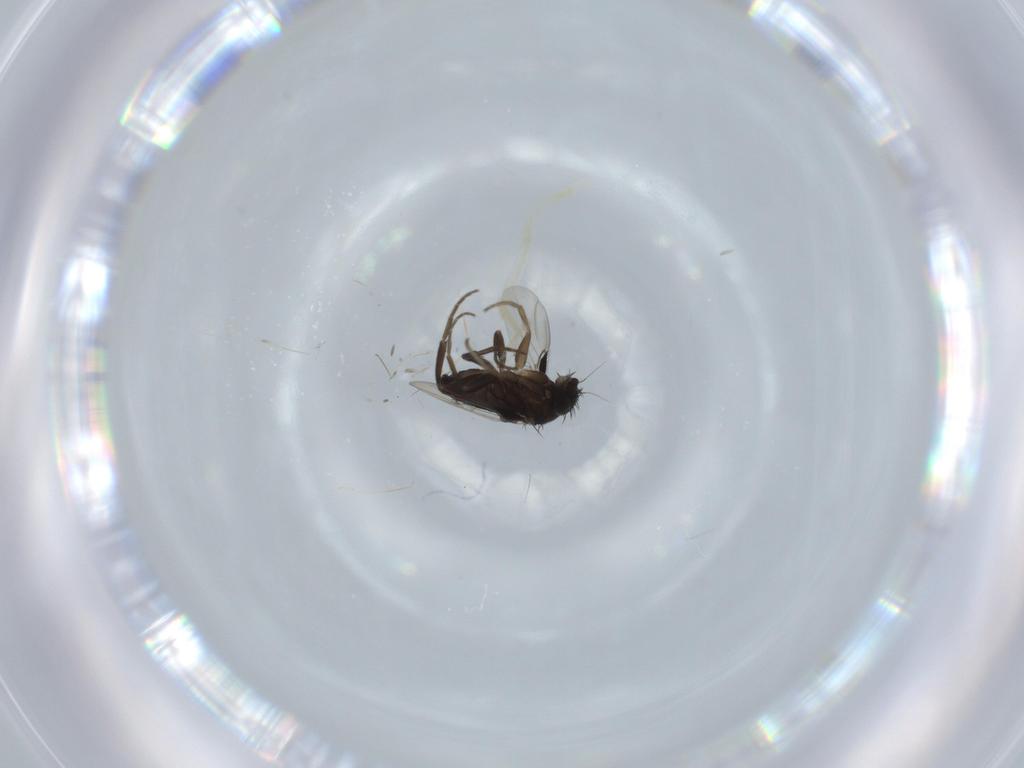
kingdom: Animalia
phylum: Arthropoda
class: Insecta
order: Diptera
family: Phoridae
